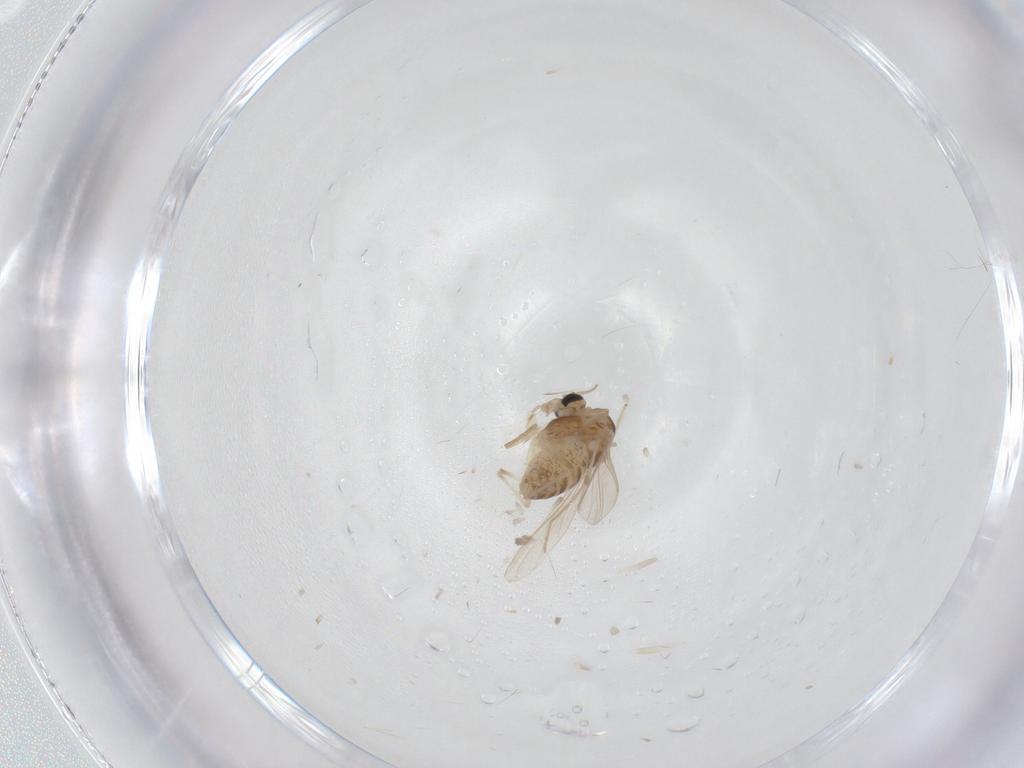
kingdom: Animalia
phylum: Arthropoda
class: Insecta
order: Diptera
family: Chironomidae
